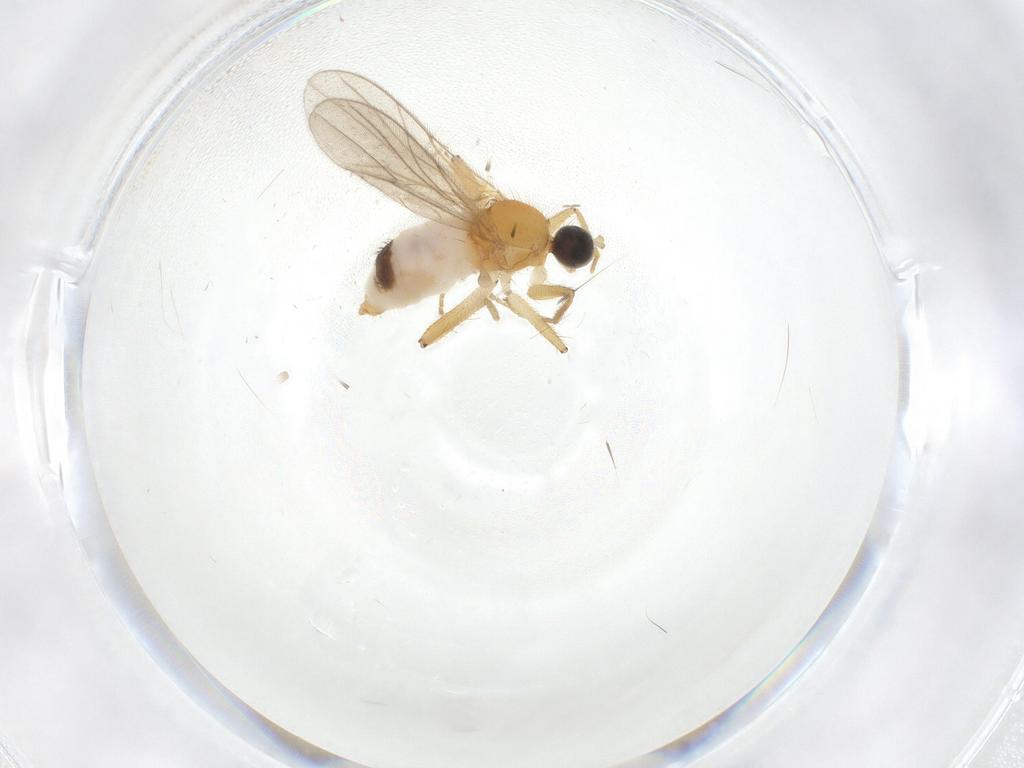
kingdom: Animalia
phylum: Arthropoda
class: Insecta
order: Diptera
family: Hybotidae
